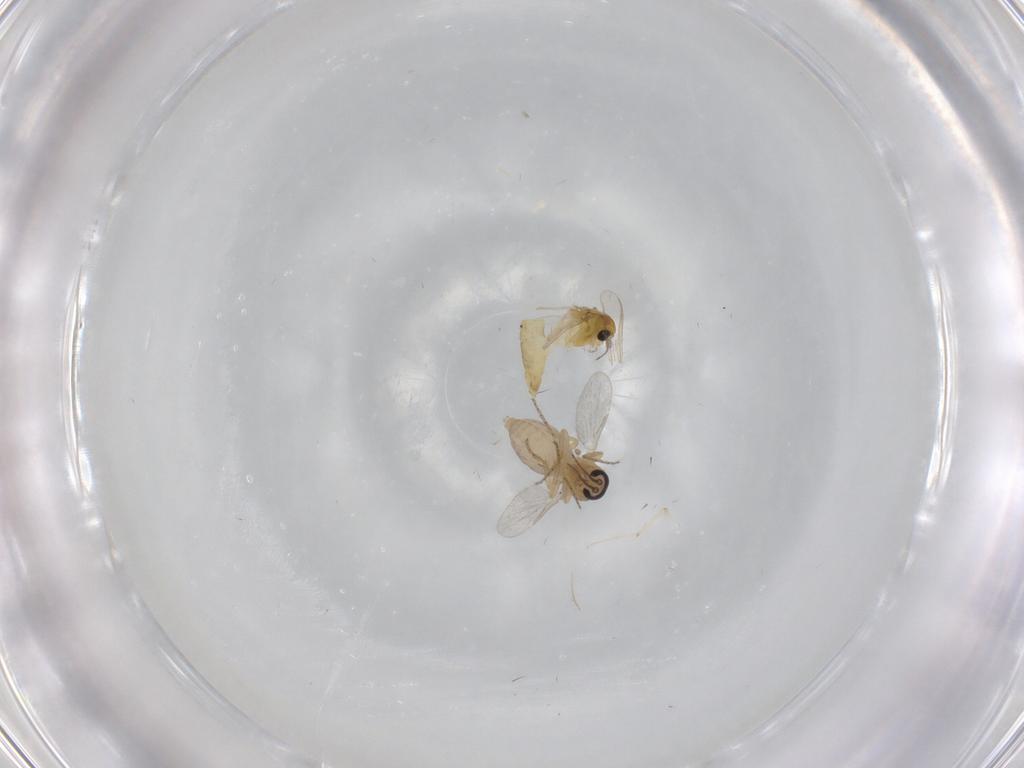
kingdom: Animalia
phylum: Arthropoda
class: Insecta
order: Diptera
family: Chironomidae
